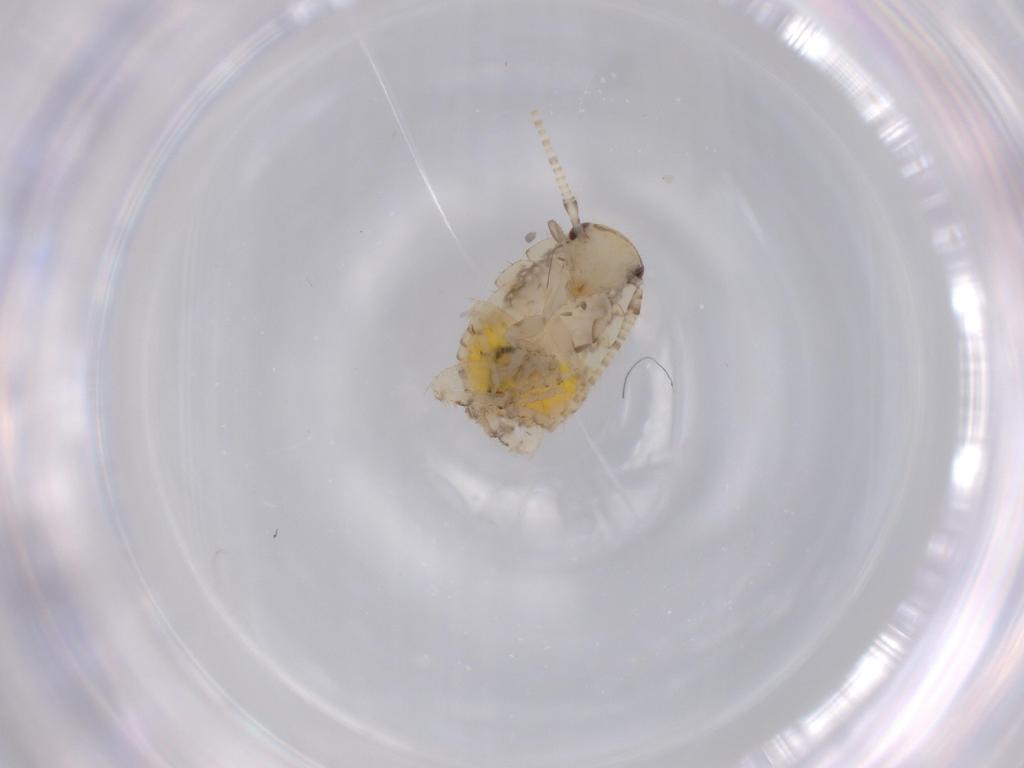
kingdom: Animalia
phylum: Arthropoda
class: Insecta
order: Blattodea
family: Ectobiidae
